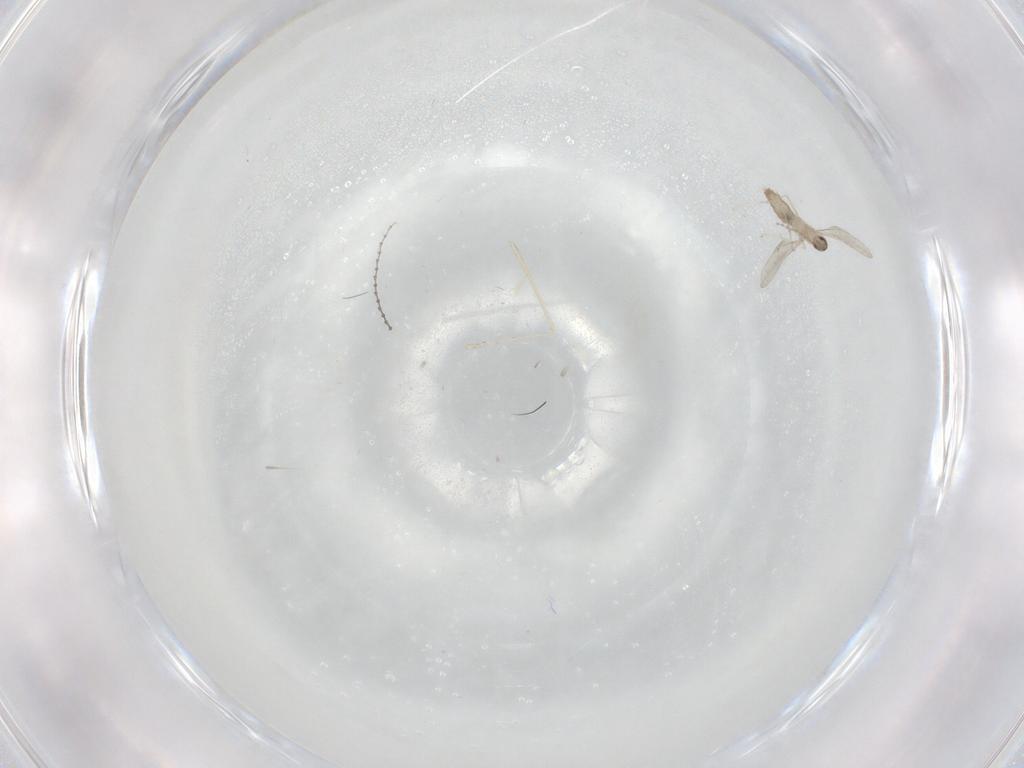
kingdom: Animalia
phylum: Arthropoda
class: Insecta
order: Diptera
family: Cecidomyiidae
